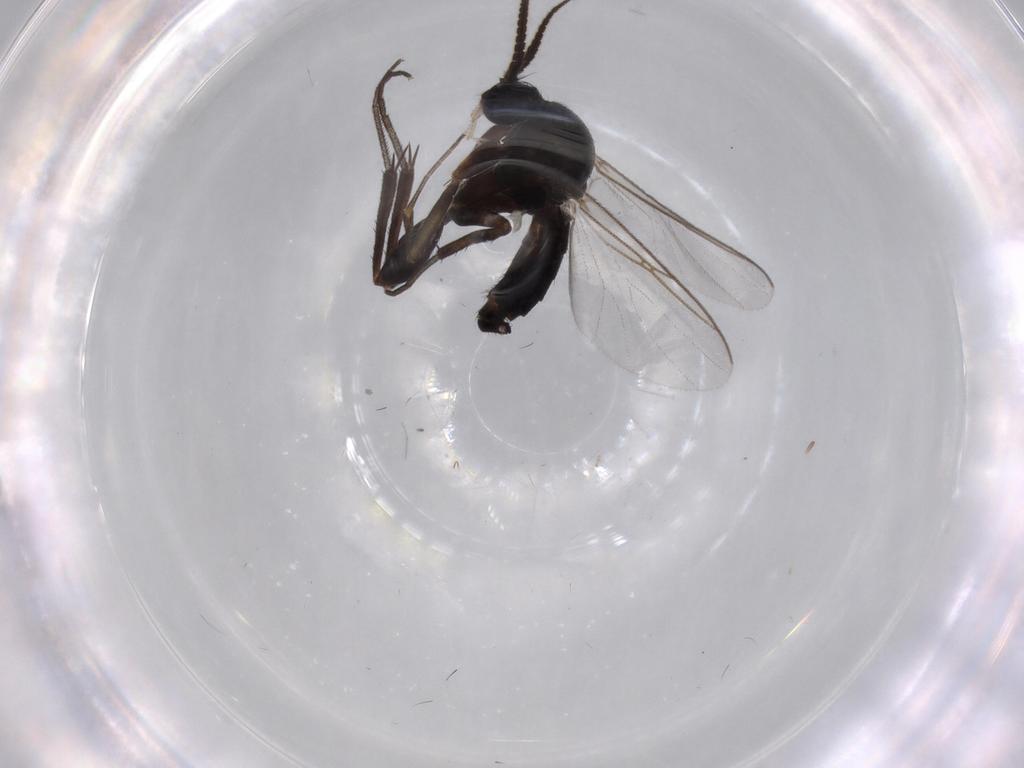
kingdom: Animalia
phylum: Arthropoda
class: Insecta
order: Diptera
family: Mycetophilidae
